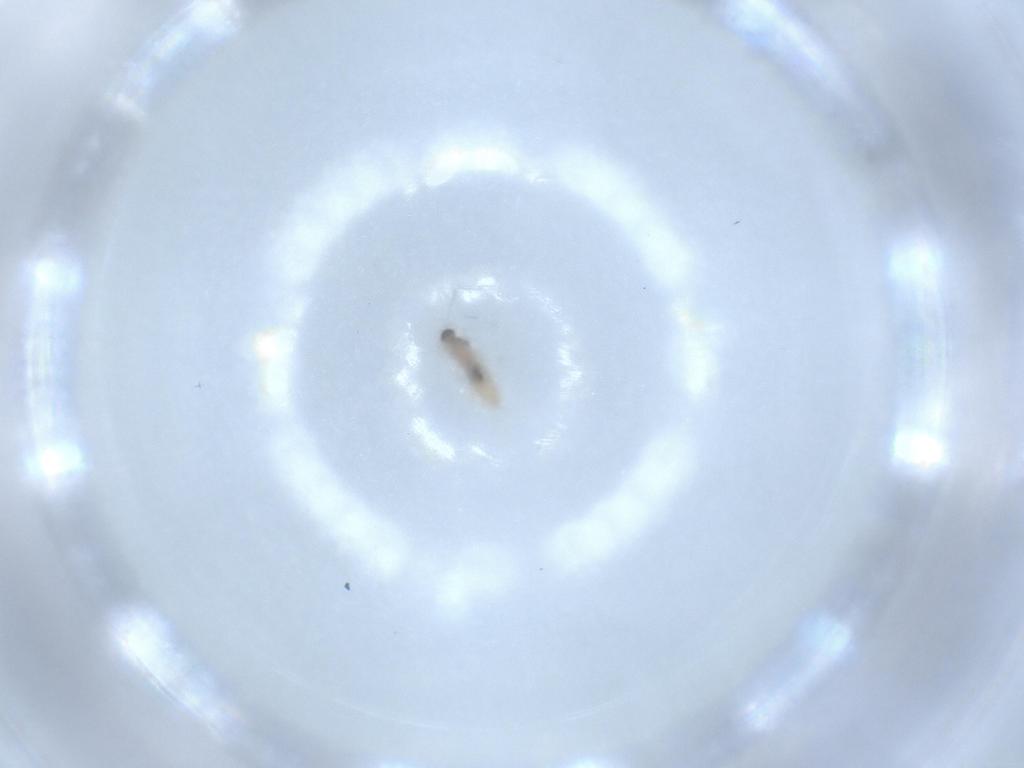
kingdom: Animalia
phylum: Arthropoda
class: Insecta
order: Diptera
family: Cecidomyiidae
